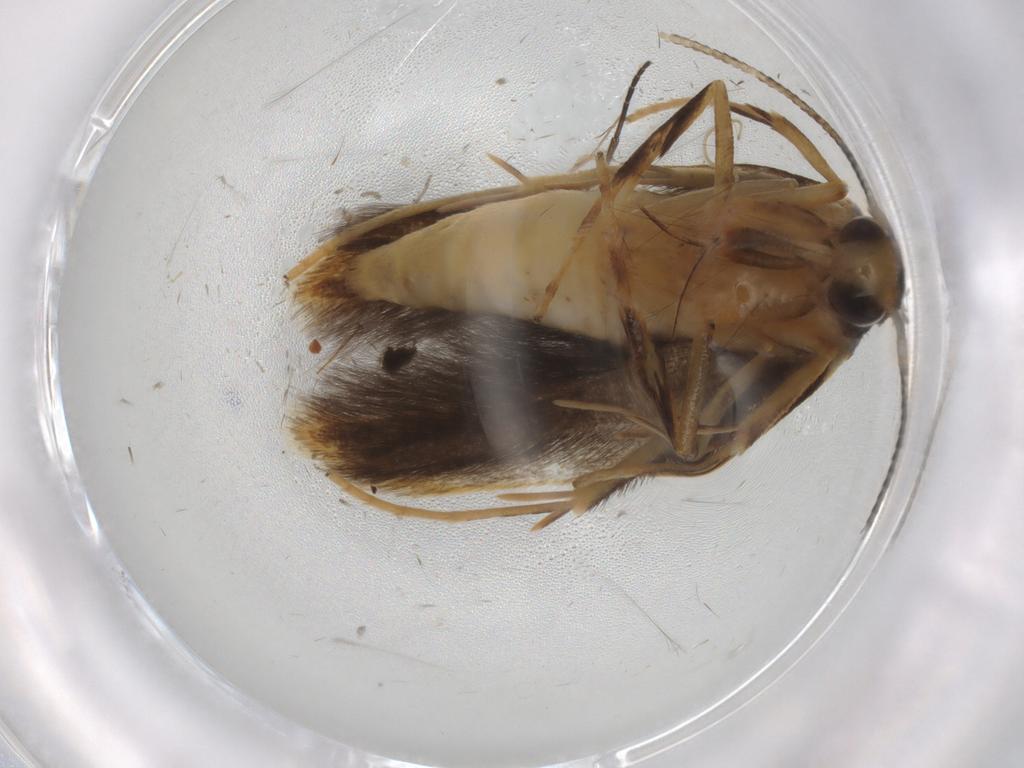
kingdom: Animalia
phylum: Arthropoda
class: Insecta
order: Lepidoptera
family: Pterolonchidae
